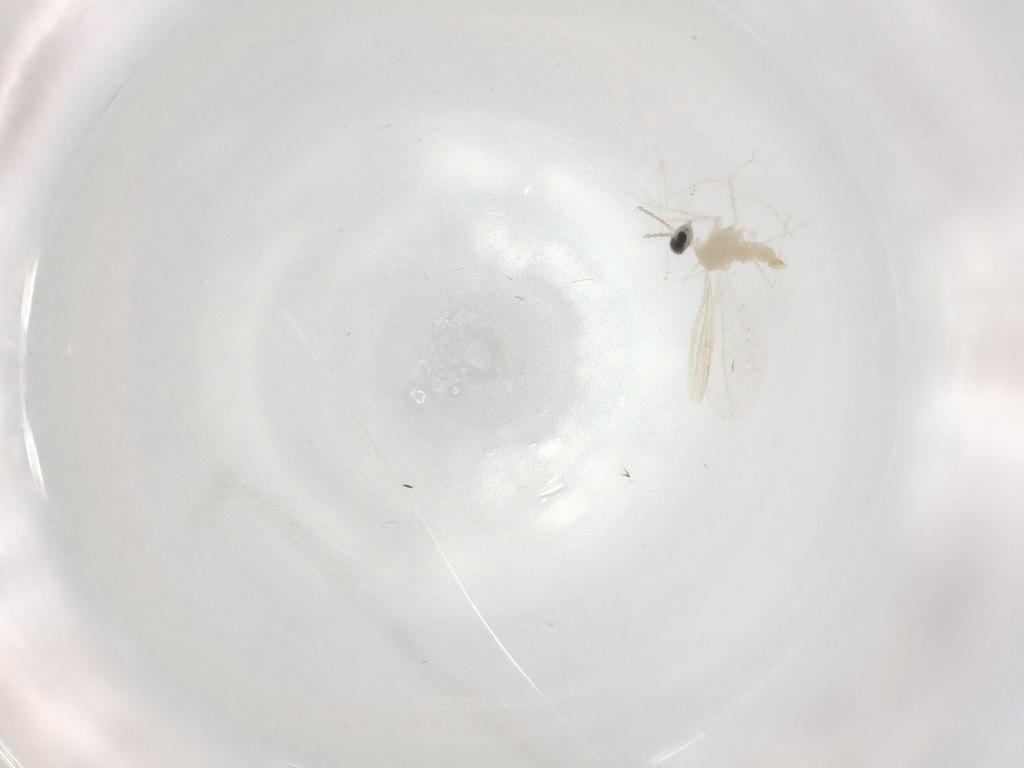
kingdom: Animalia
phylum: Arthropoda
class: Insecta
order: Diptera
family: Cecidomyiidae
